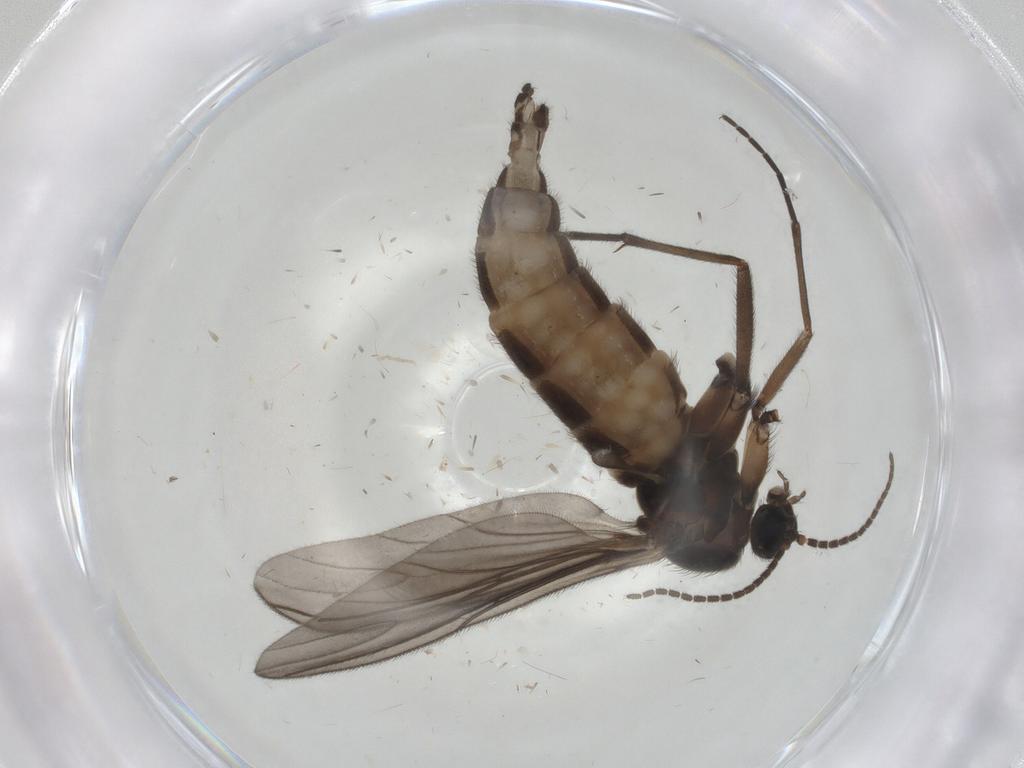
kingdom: Animalia
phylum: Arthropoda
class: Insecta
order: Diptera
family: Sciaridae
